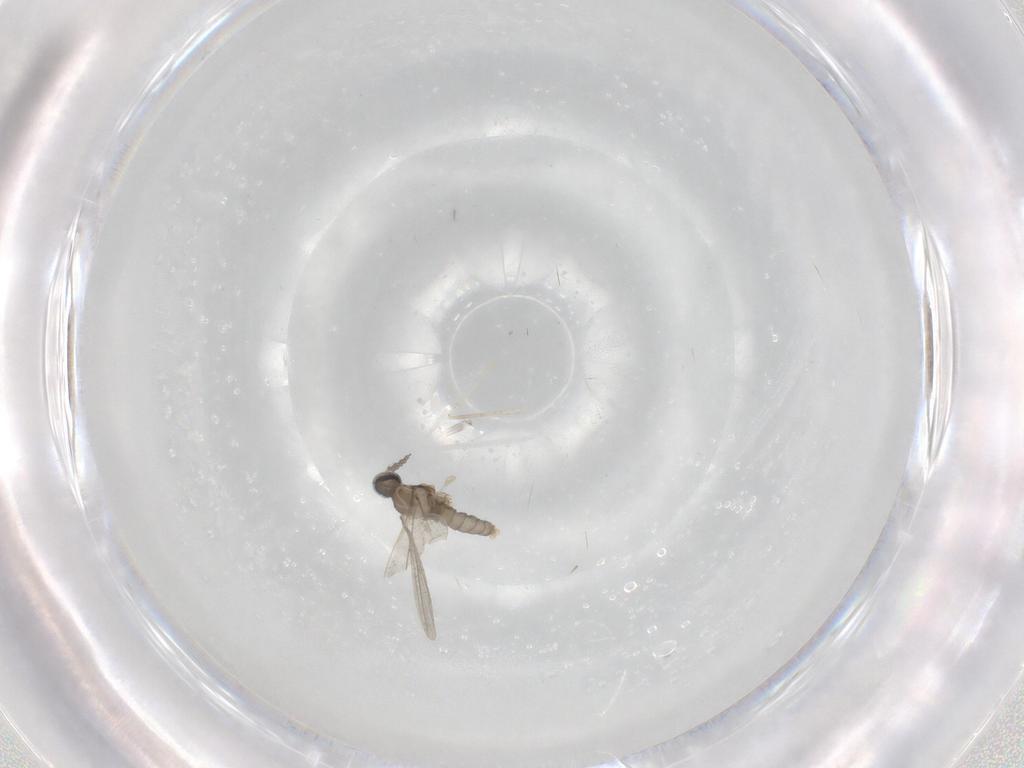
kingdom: Animalia
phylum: Arthropoda
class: Insecta
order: Diptera
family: Cecidomyiidae
